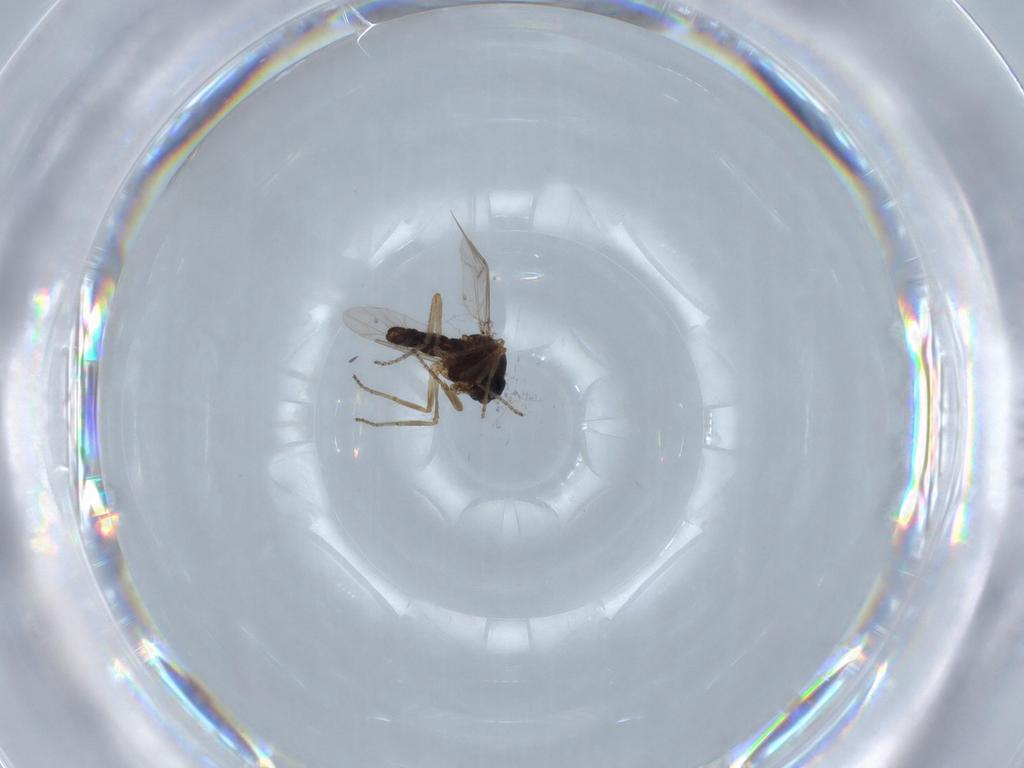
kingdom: Animalia
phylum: Arthropoda
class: Insecta
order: Diptera
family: Ceratopogonidae
